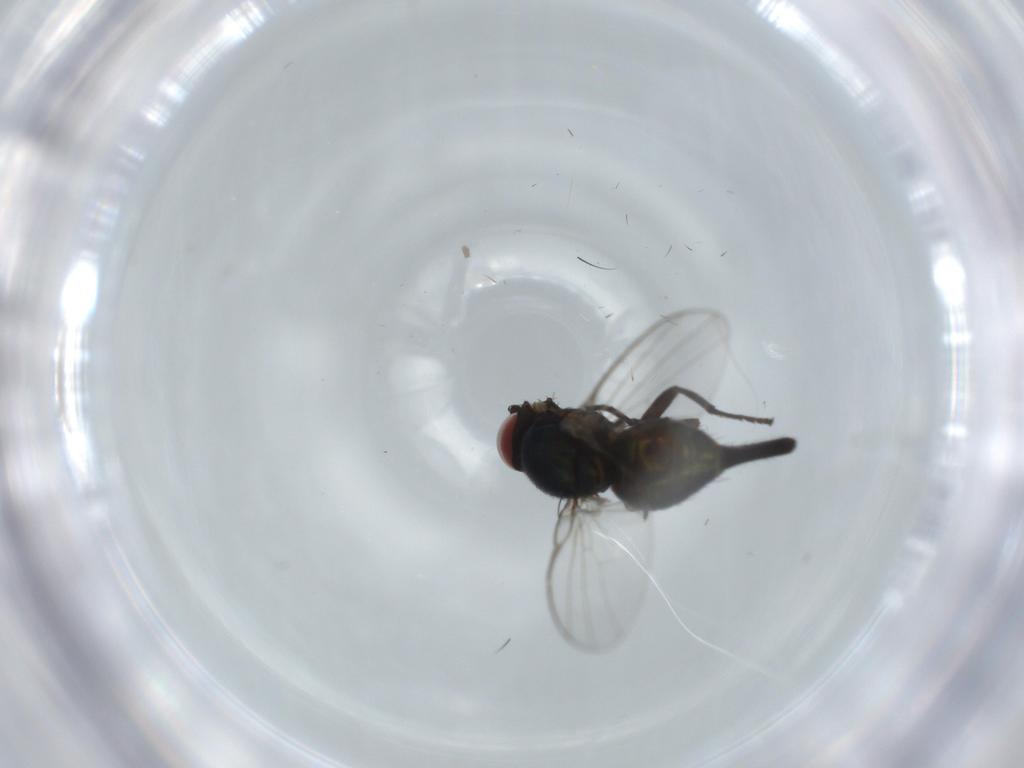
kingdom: Animalia
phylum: Arthropoda
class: Insecta
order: Diptera
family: Agromyzidae
